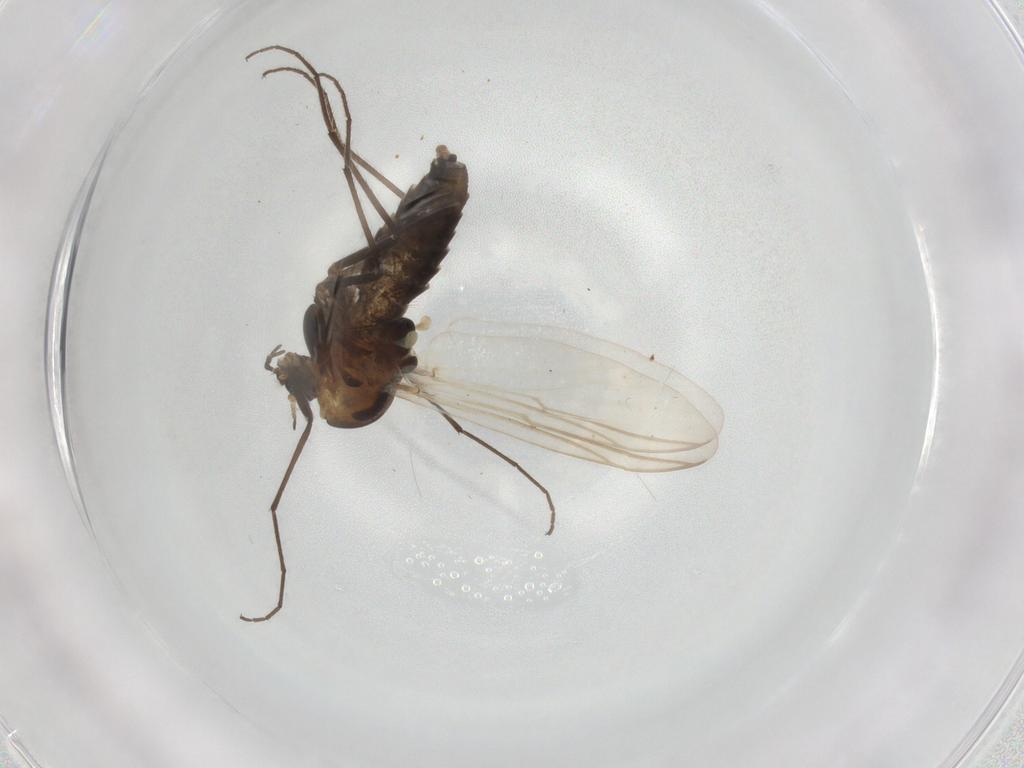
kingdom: Animalia
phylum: Arthropoda
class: Insecta
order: Diptera
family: Chironomidae
